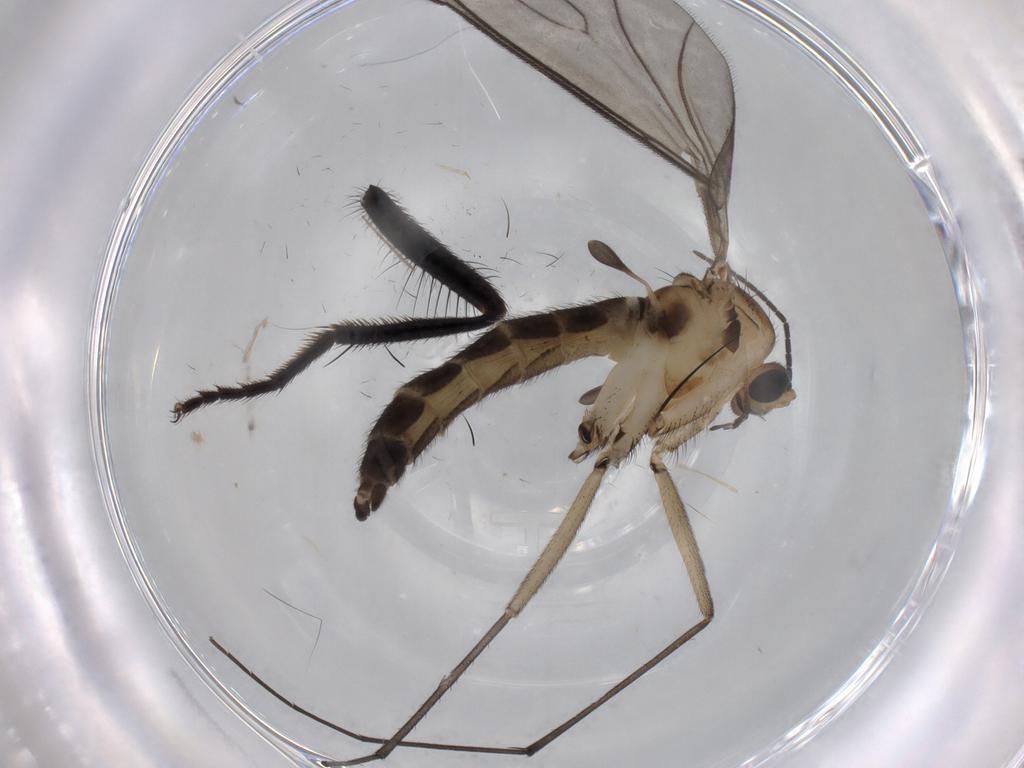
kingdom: Animalia
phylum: Arthropoda
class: Insecta
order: Diptera
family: Sciaridae
